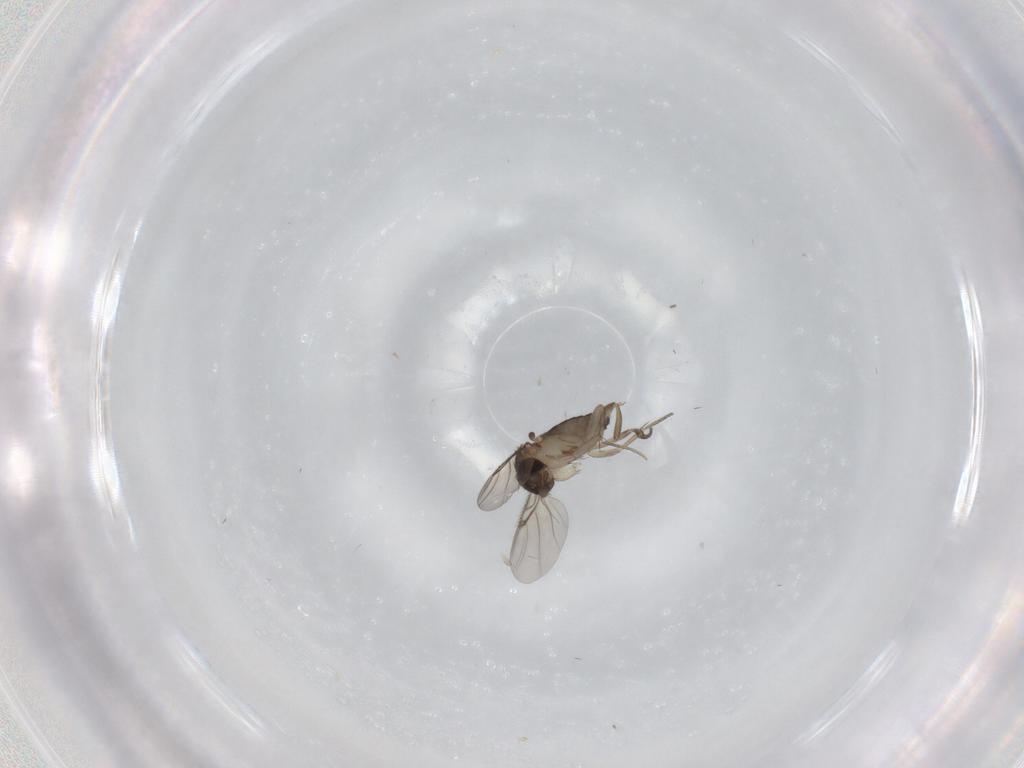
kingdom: Animalia
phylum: Arthropoda
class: Insecta
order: Diptera
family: Phoridae
